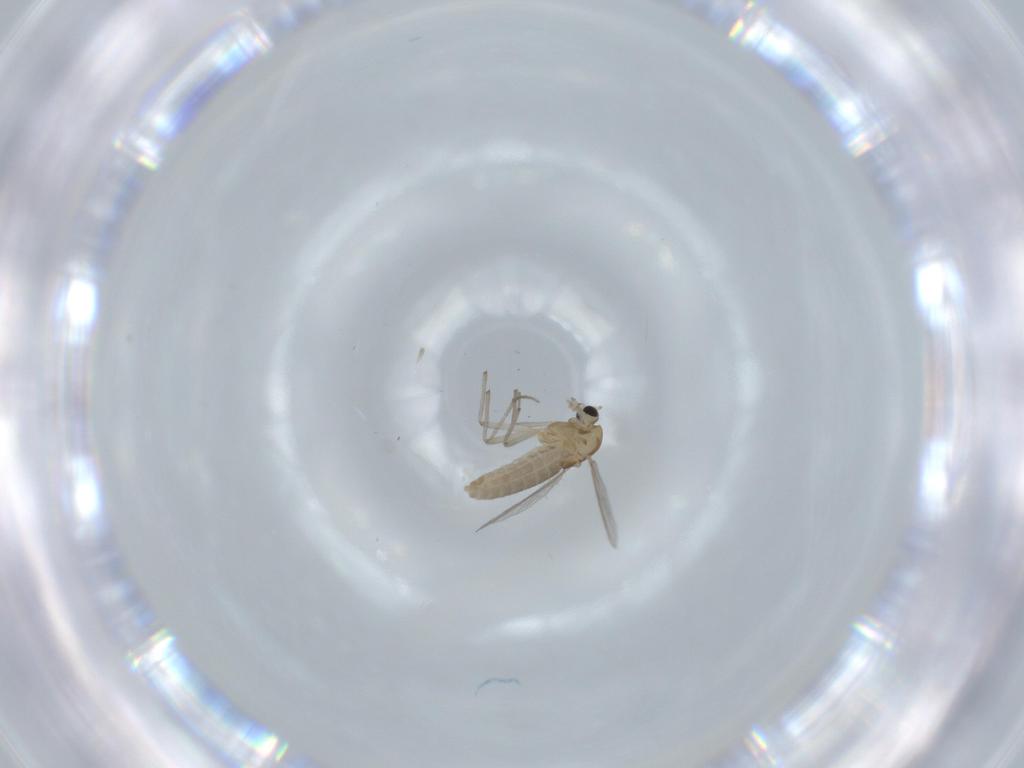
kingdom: Animalia
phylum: Arthropoda
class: Insecta
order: Diptera
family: Chironomidae
